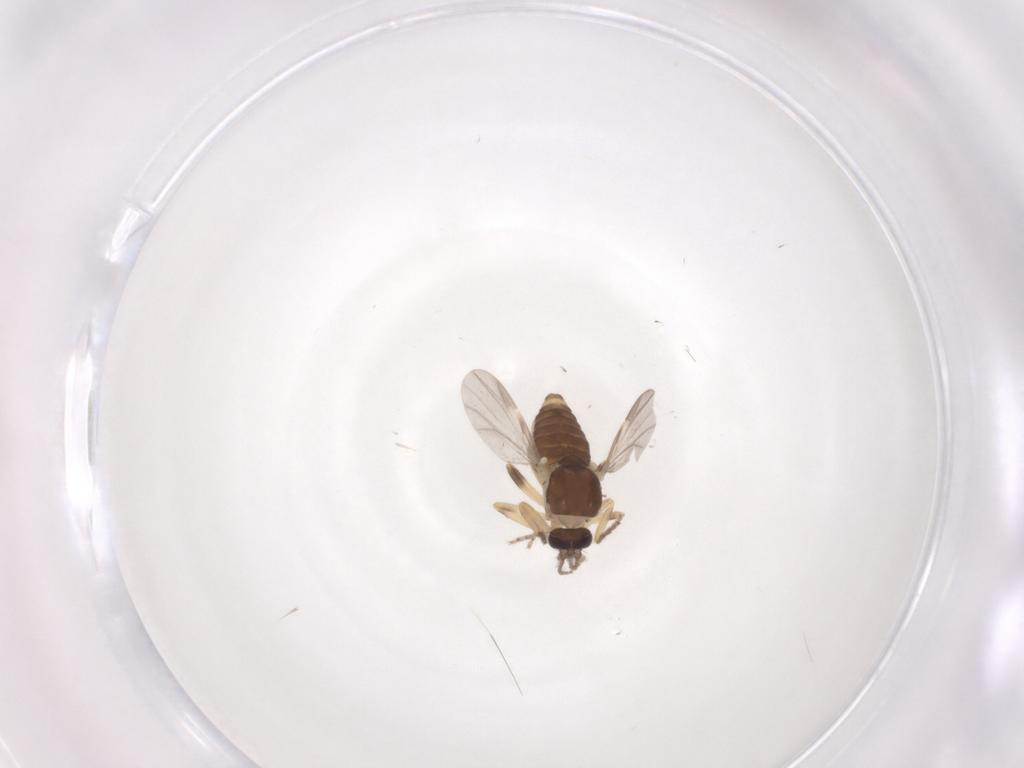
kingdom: Animalia
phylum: Arthropoda
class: Insecta
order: Diptera
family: Ceratopogonidae
